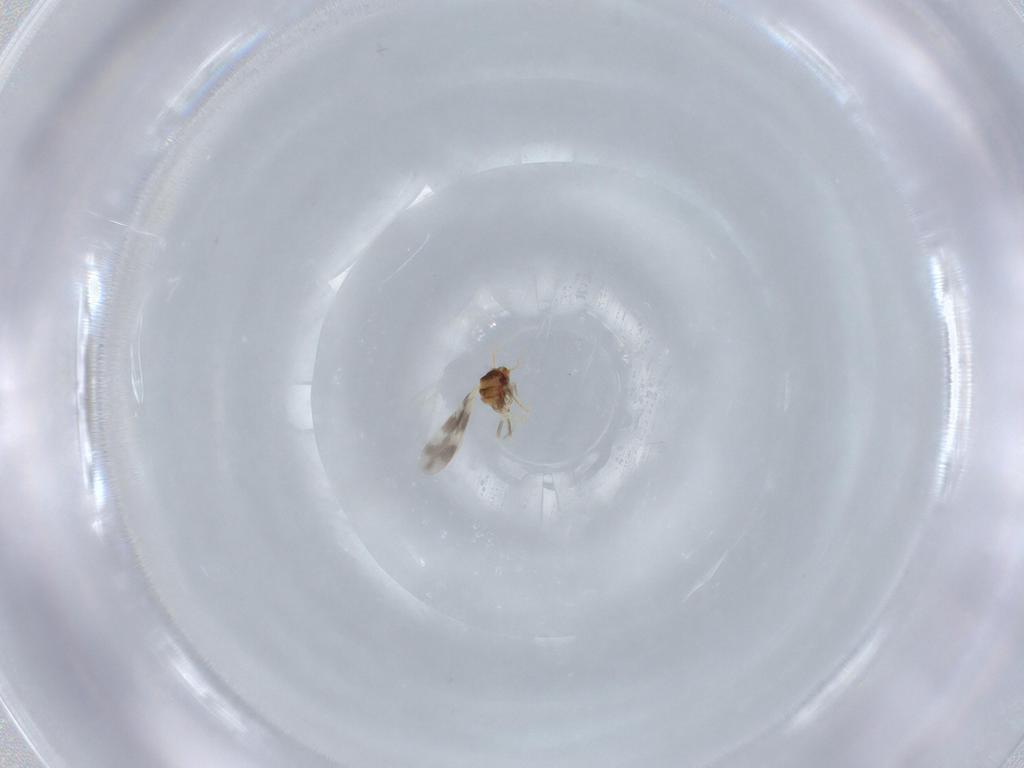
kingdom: Animalia
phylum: Arthropoda
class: Insecta
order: Hemiptera
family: Aleyrodidae
